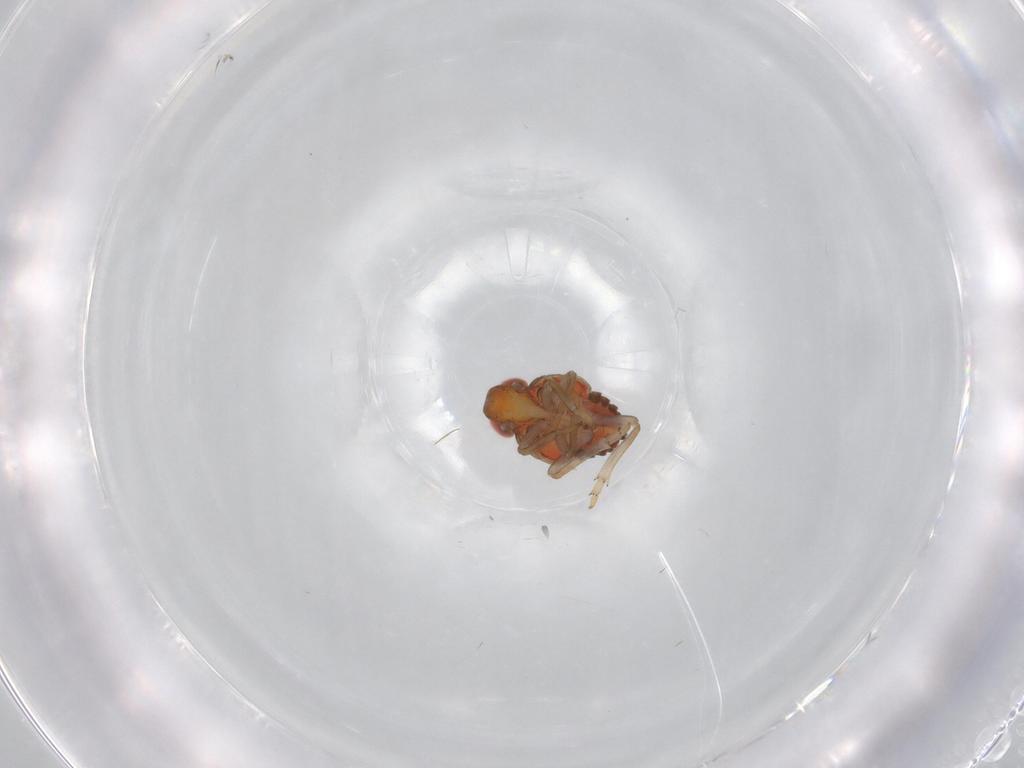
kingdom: Animalia
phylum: Arthropoda
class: Insecta
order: Hemiptera
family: Issidae
